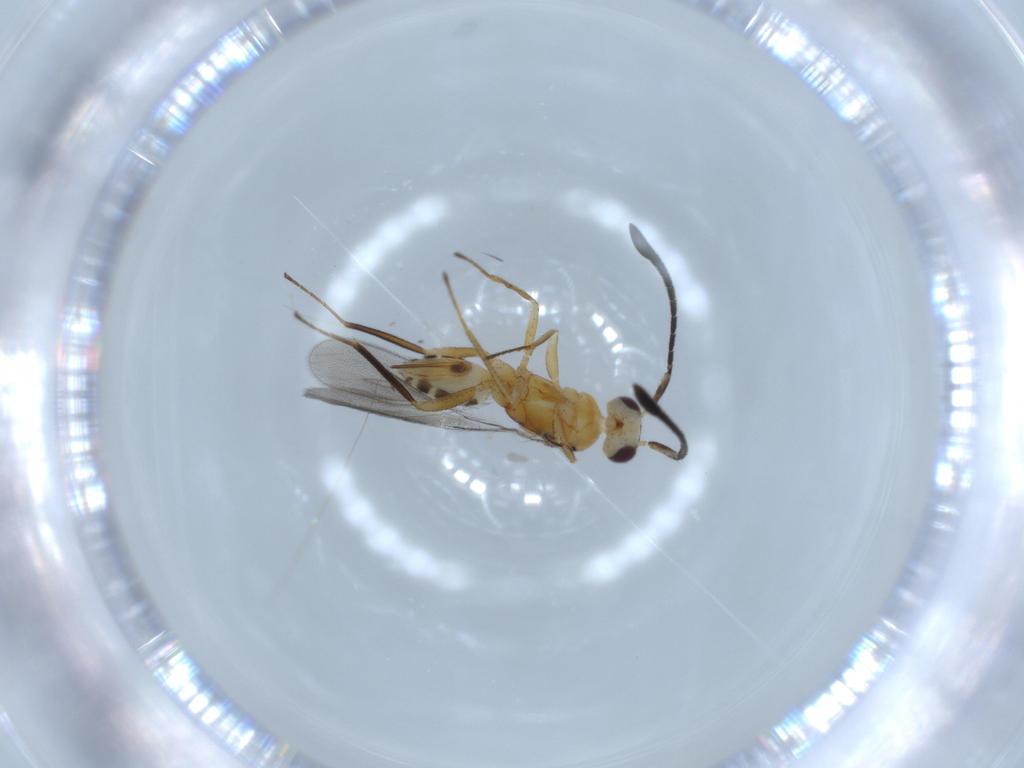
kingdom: Animalia
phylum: Arthropoda
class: Insecta
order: Hymenoptera
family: Mymaridae
